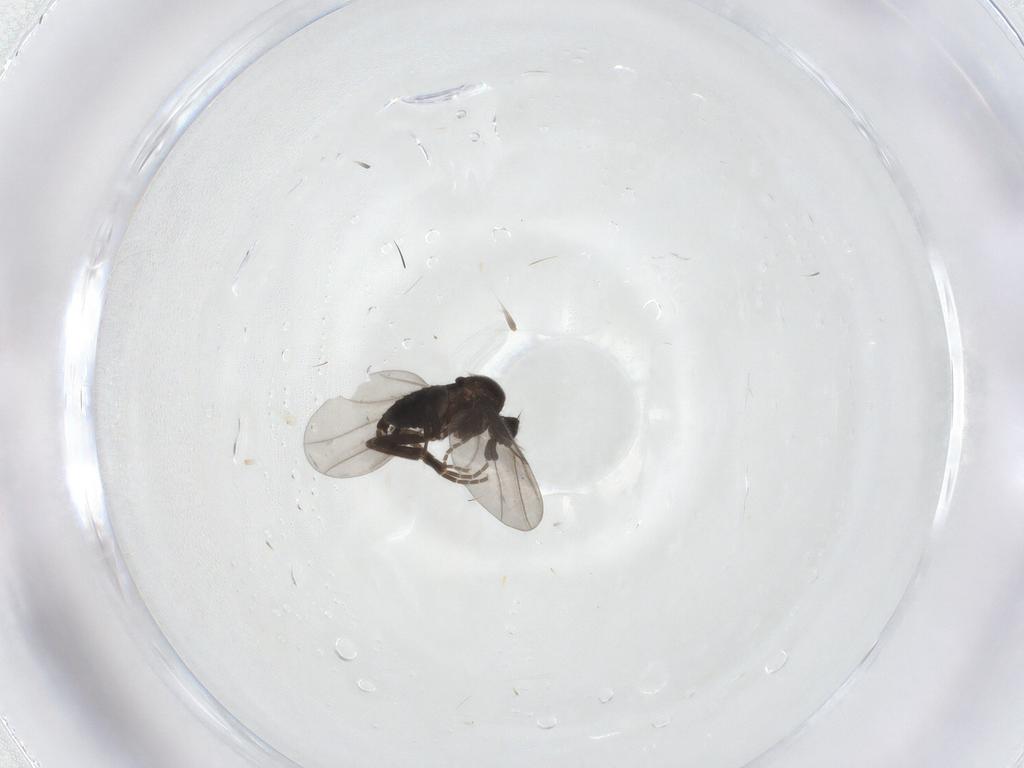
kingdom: Animalia
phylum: Arthropoda
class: Insecta
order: Diptera
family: Tachinidae
